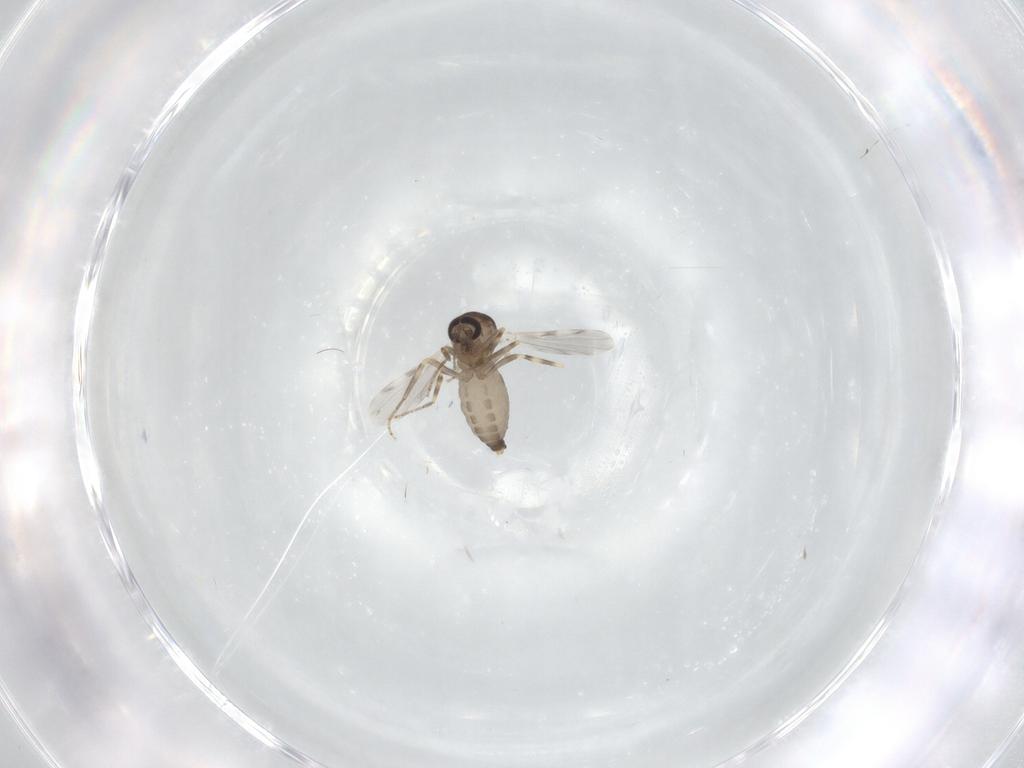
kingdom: Animalia
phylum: Arthropoda
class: Insecta
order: Diptera
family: Ceratopogonidae
